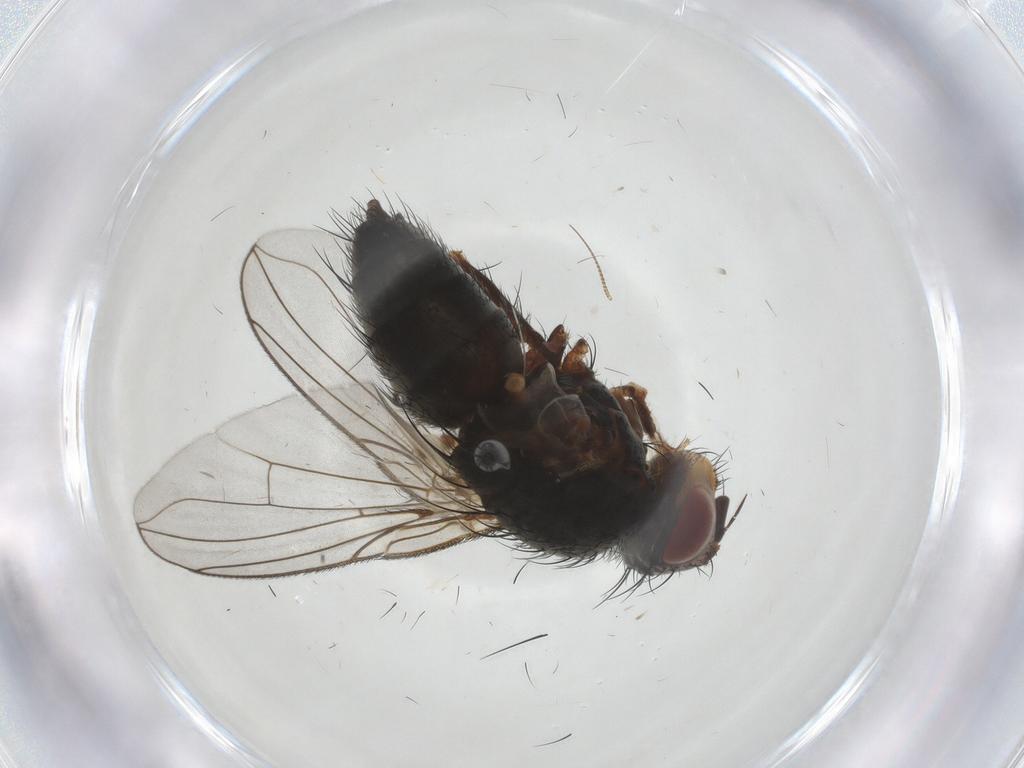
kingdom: Animalia
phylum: Arthropoda
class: Insecta
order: Diptera
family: Tachinidae
